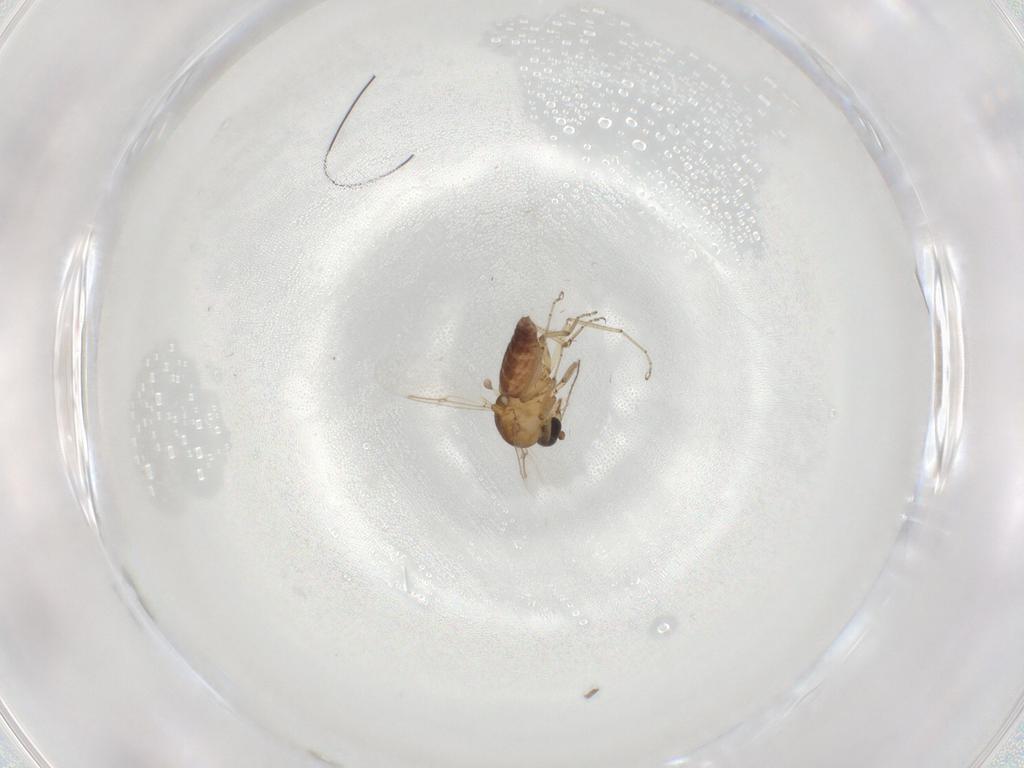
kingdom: Animalia
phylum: Arthropoda
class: Insecta
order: Diptera
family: Ceratopogonidae
